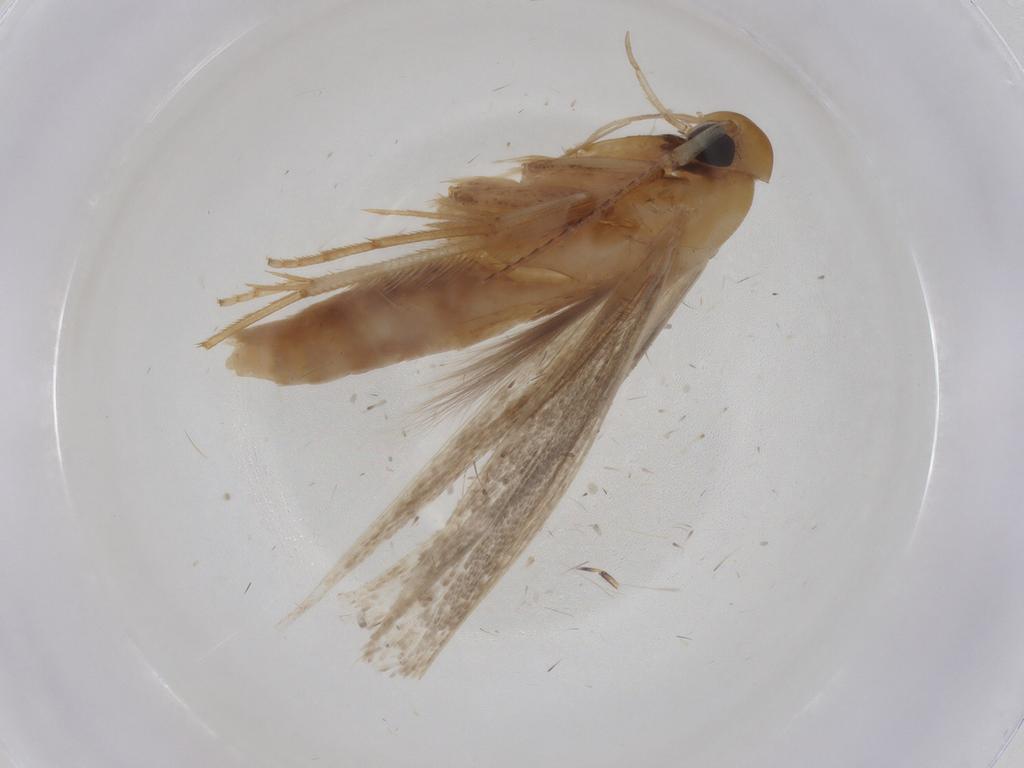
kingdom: Animalia
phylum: Arthropoda
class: Insecta
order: Lepidoptera
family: Erebidae
